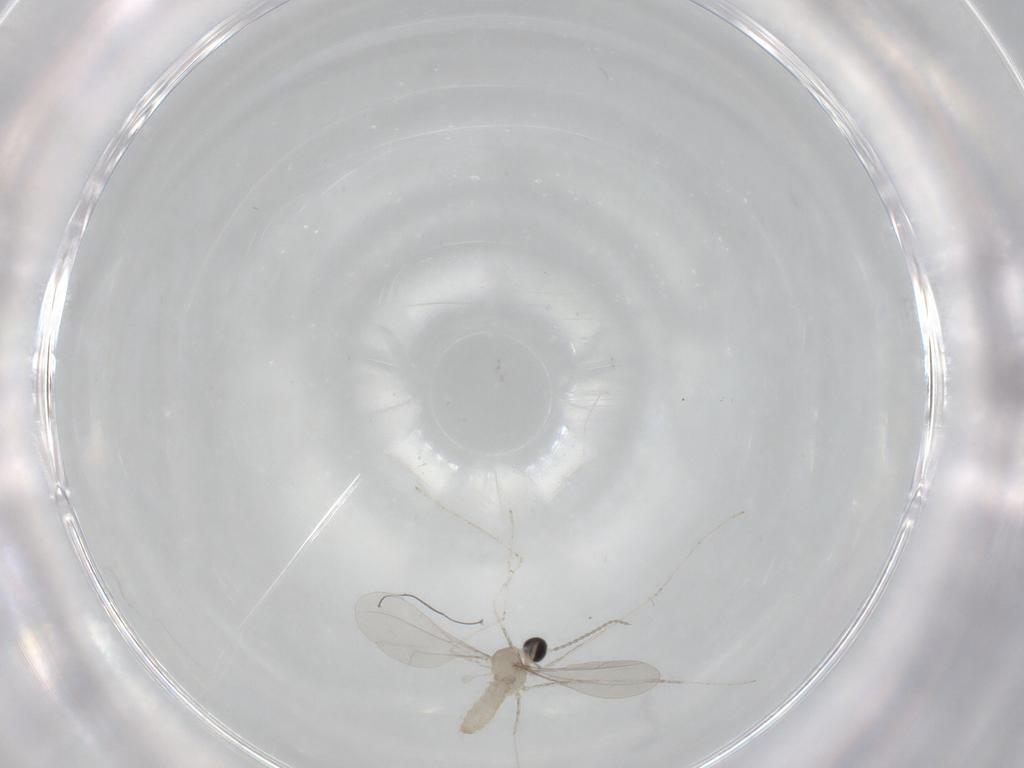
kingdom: Animalia
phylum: Arthropoda
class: Insecta
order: Diptera
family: Cecidomyiidae
